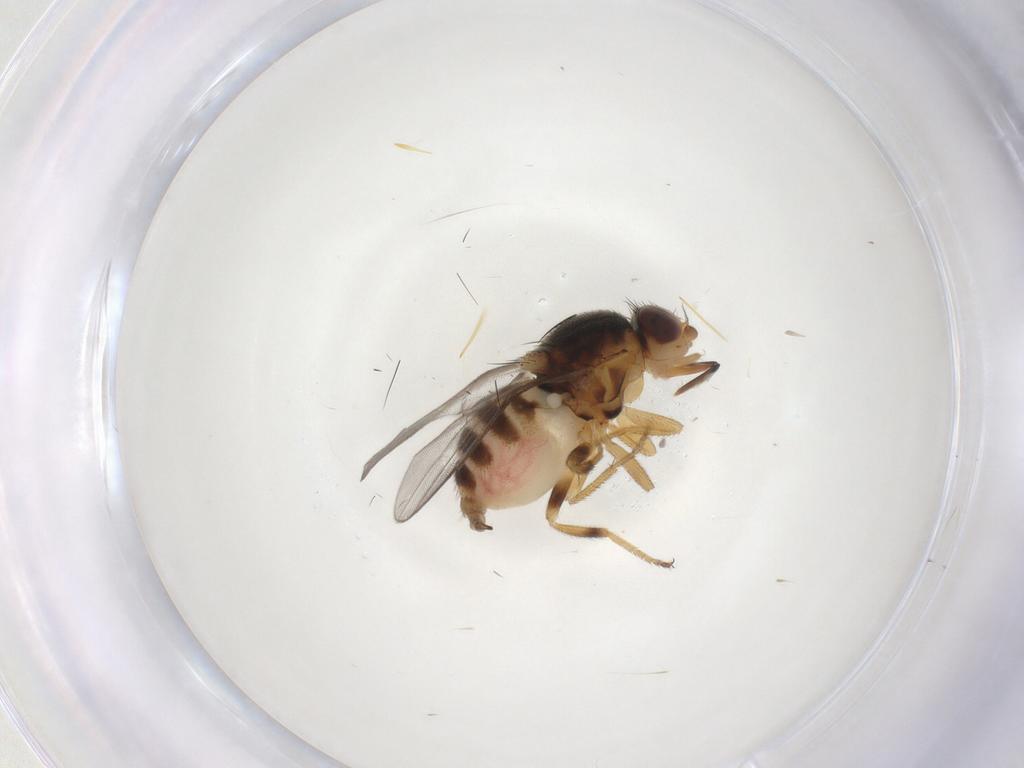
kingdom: Animalia
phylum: Arthropoda
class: Insecta
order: Diptera
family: Chloropidae
